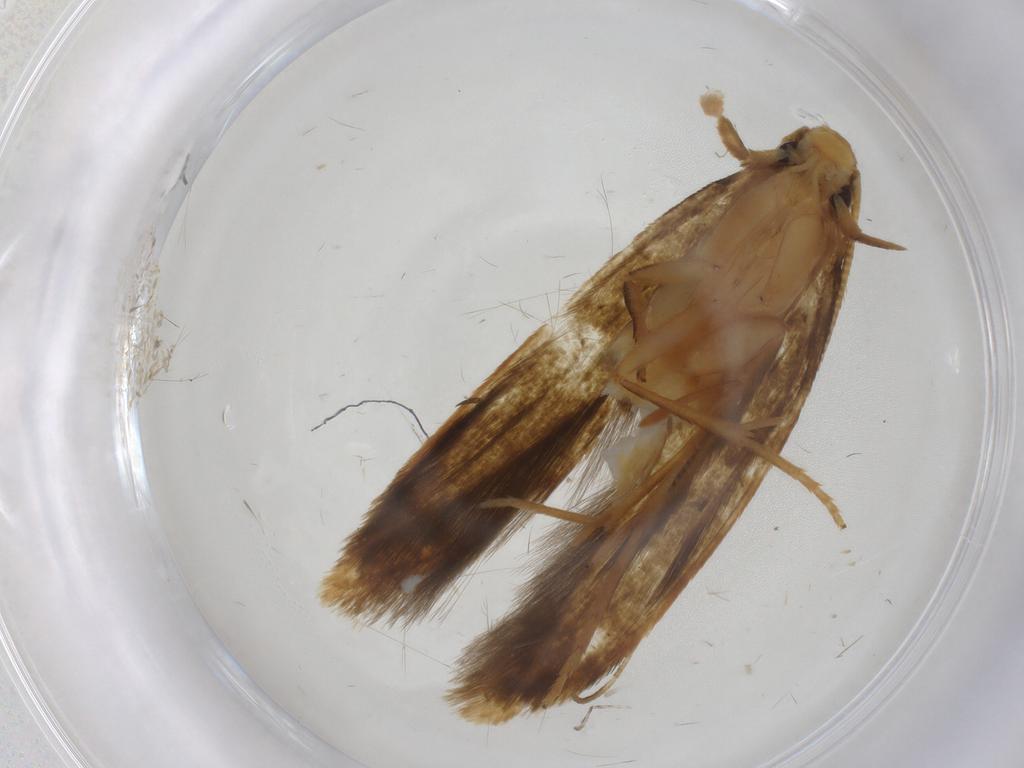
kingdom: Animalia
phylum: Arthropoda
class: Insecta
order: Lepidoptera
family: Tineidae
